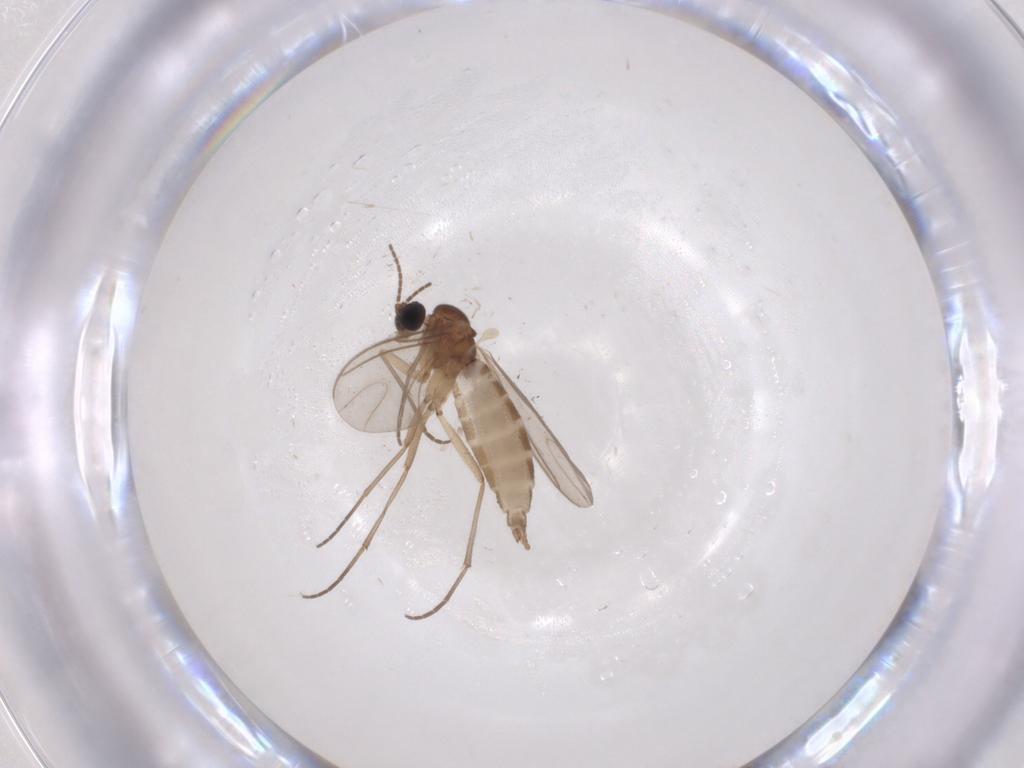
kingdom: Animalia
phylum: Arthropoda
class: Insecta
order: Diptera
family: Sciaridae
